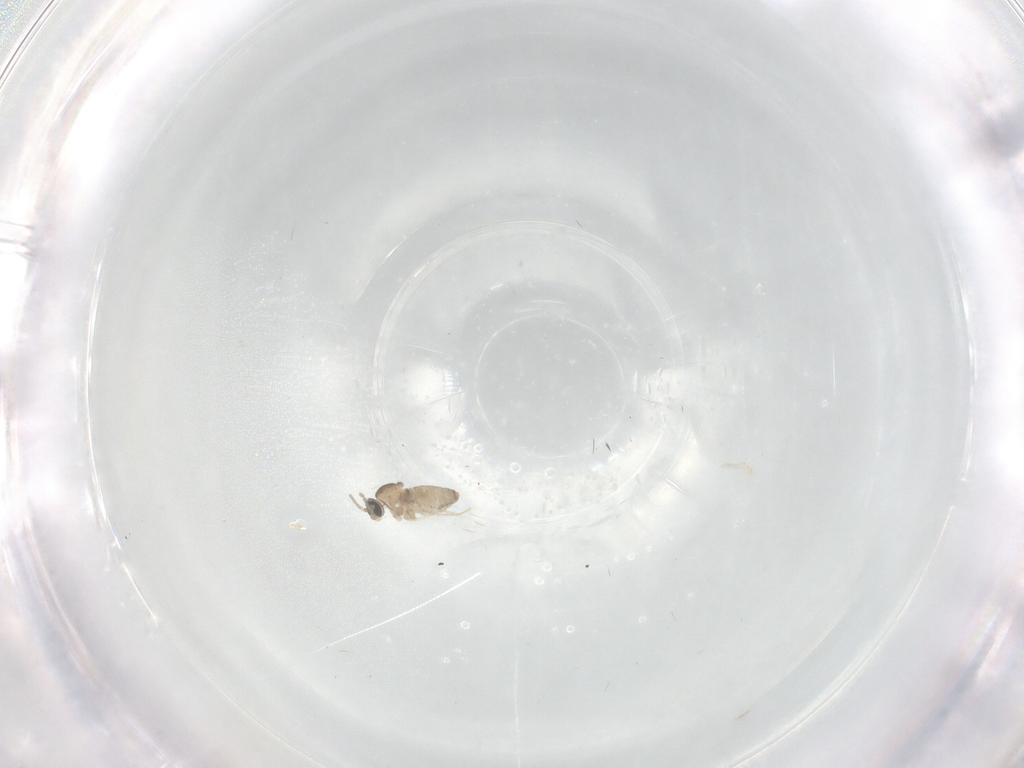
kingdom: Animalia
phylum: Arthropoda
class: Insecta
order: Diptera
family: Cecidomyiidae
